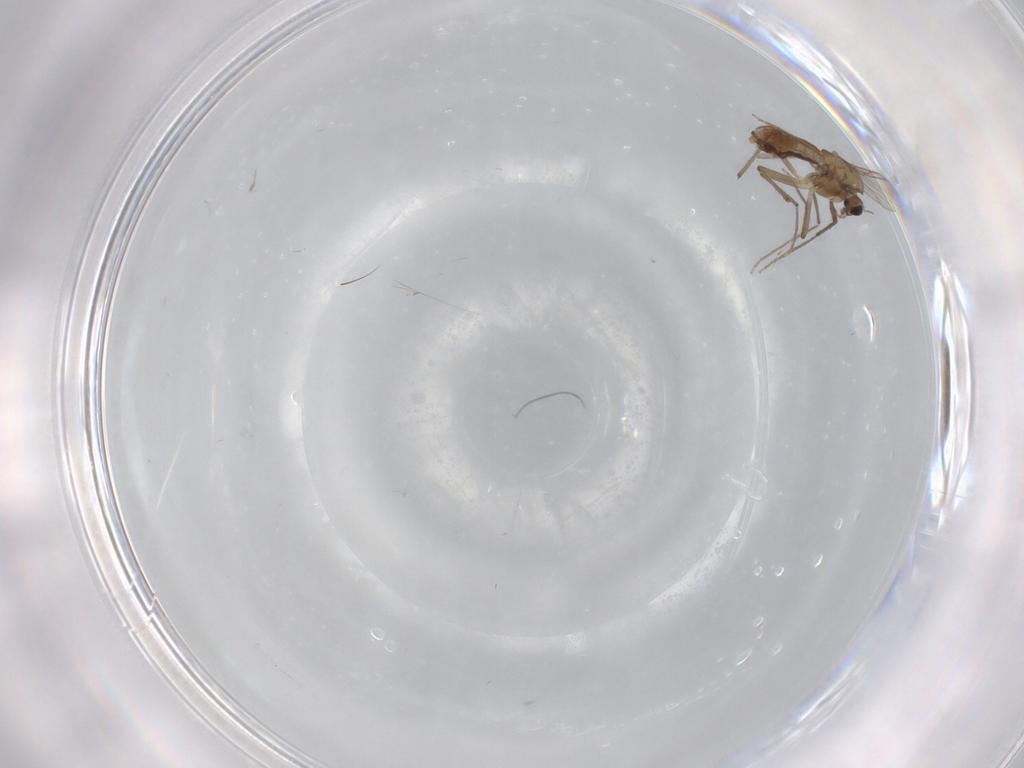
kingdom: Animalia
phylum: Arthropoda
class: Insecta
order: Diptera
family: Chironomidae
